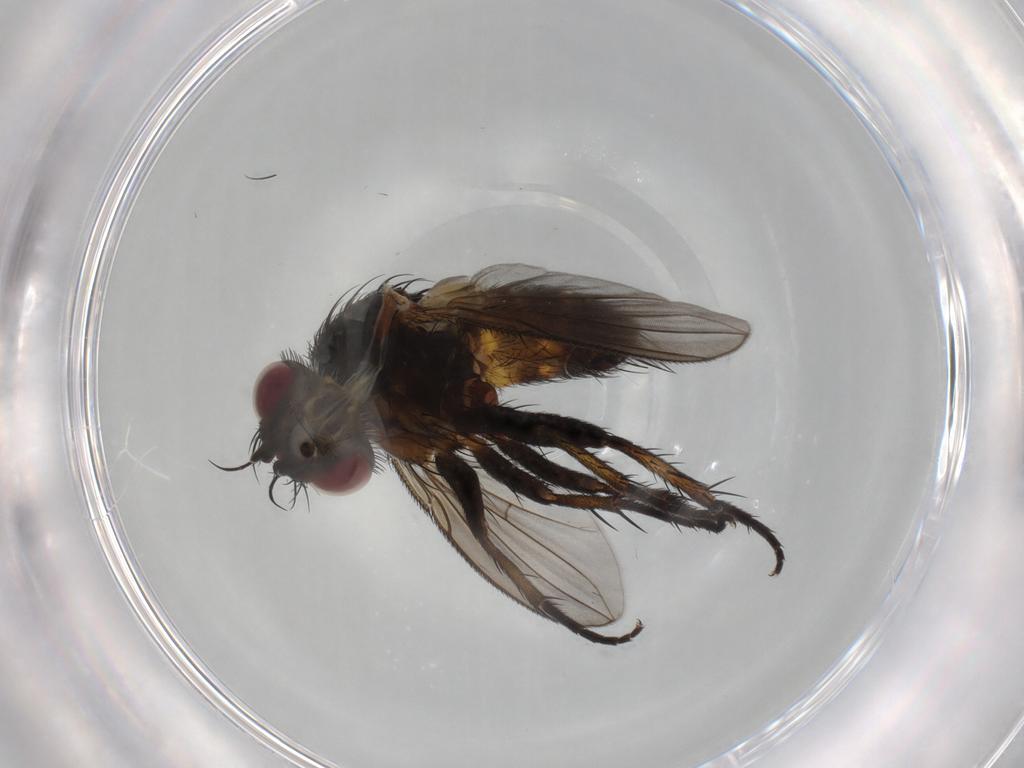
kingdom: Animalia
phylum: Arthropoda
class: Insecta
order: Diptera
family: Tachinidae
